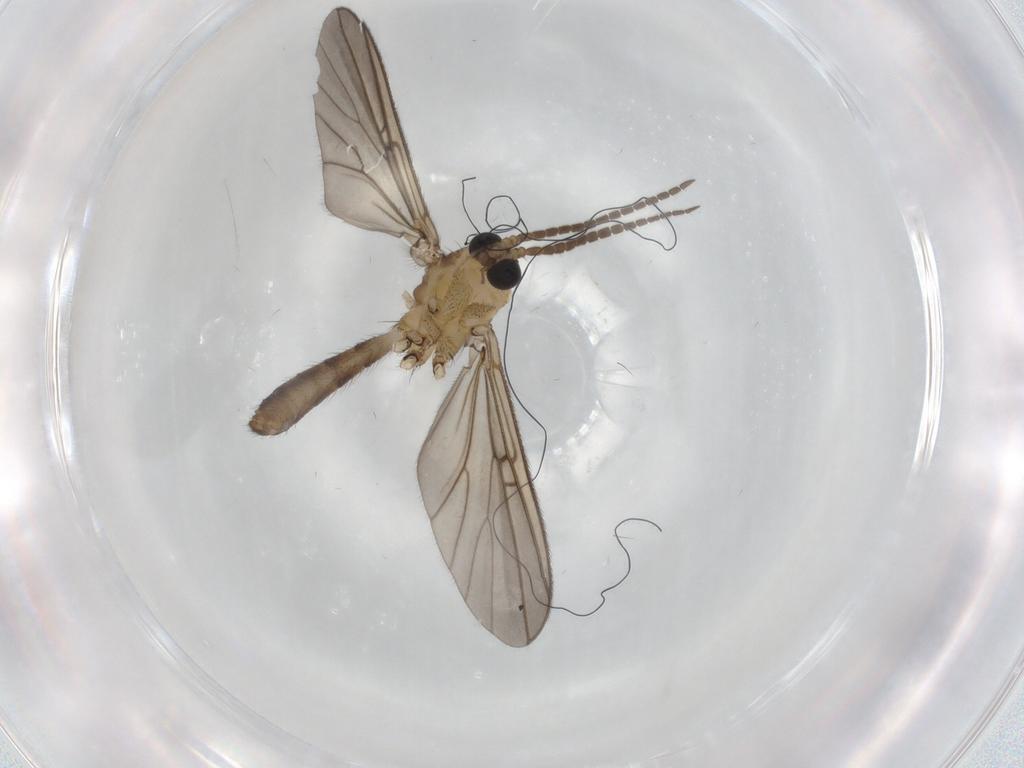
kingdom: Animalia
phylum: Arthropoda
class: Insecta
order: Diptera
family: Mycetophilidae
